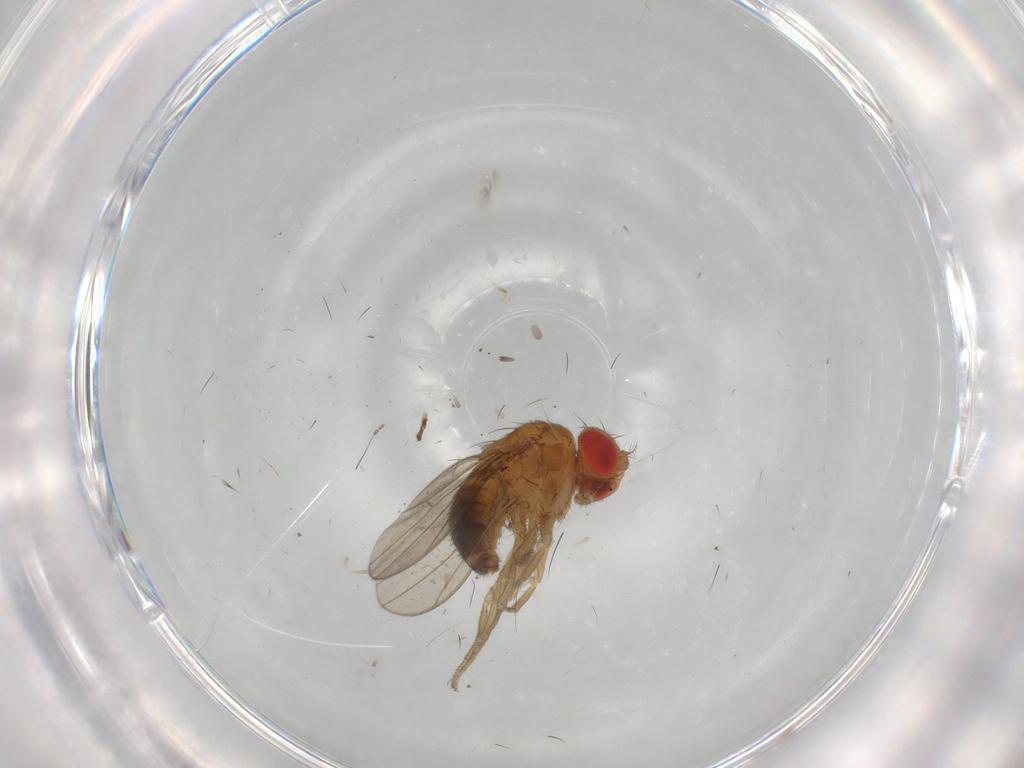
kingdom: Animalia
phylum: Arthropoda
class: Insecta
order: Diptera
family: Drosophilidae
